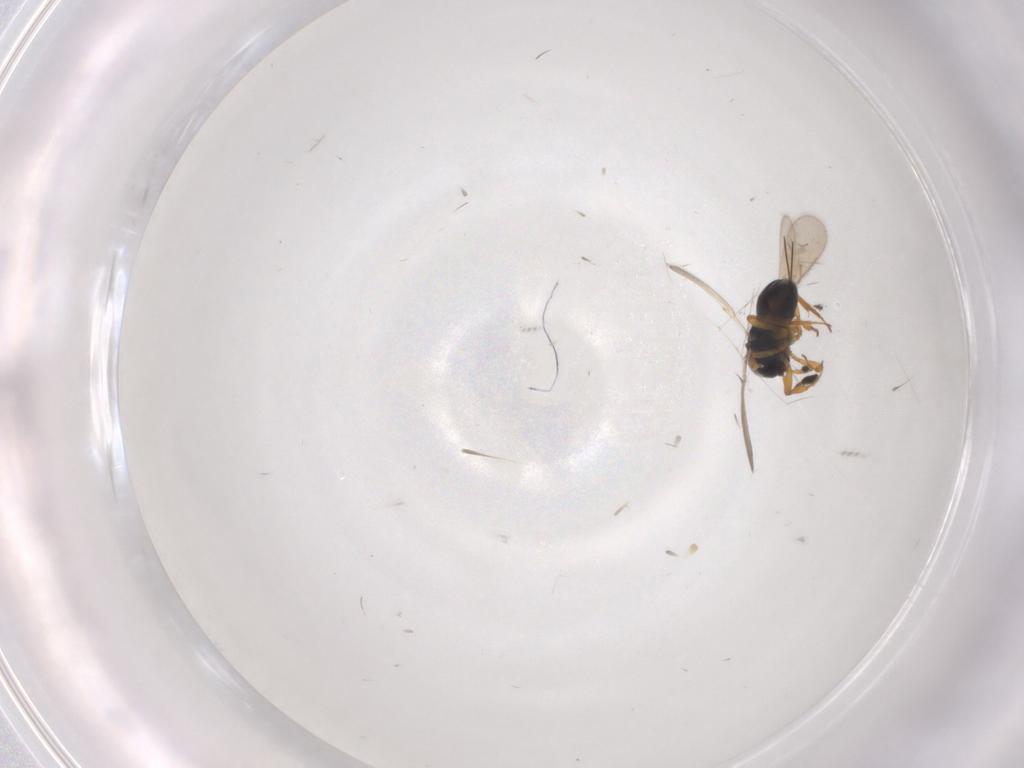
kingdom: Animalia
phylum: Arthropoda
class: Insecta
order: Hymenoptera
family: Scelionidae
